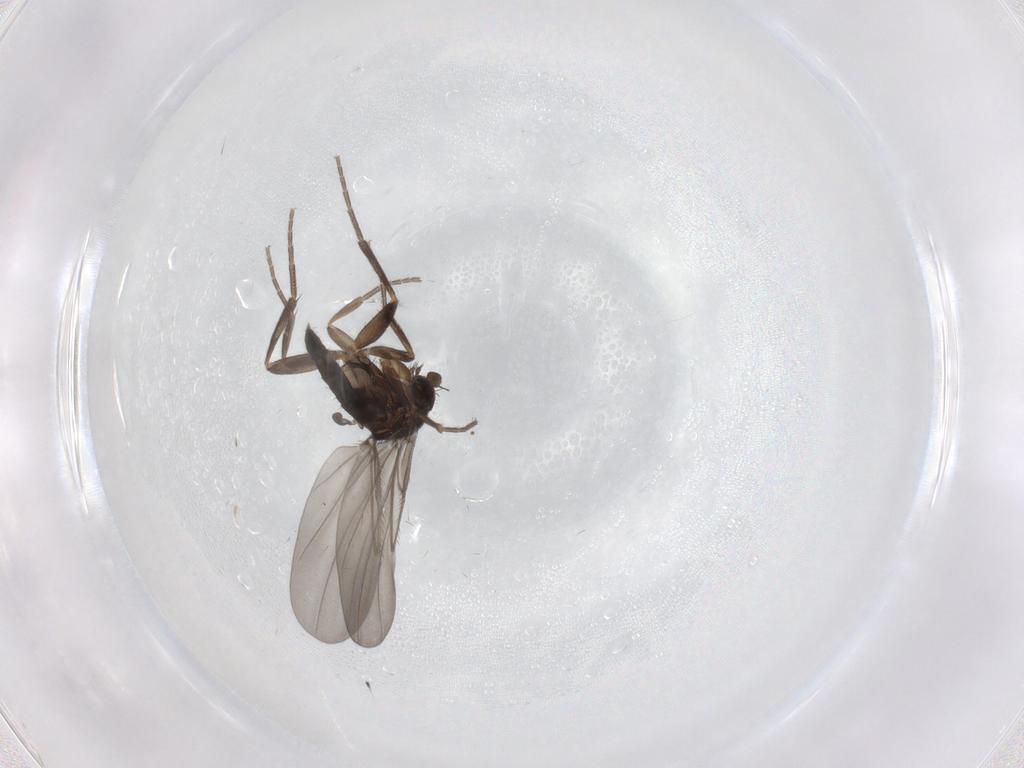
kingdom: Animalia
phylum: Arthropoda
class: Insecta
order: Diptera
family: Phoridae
